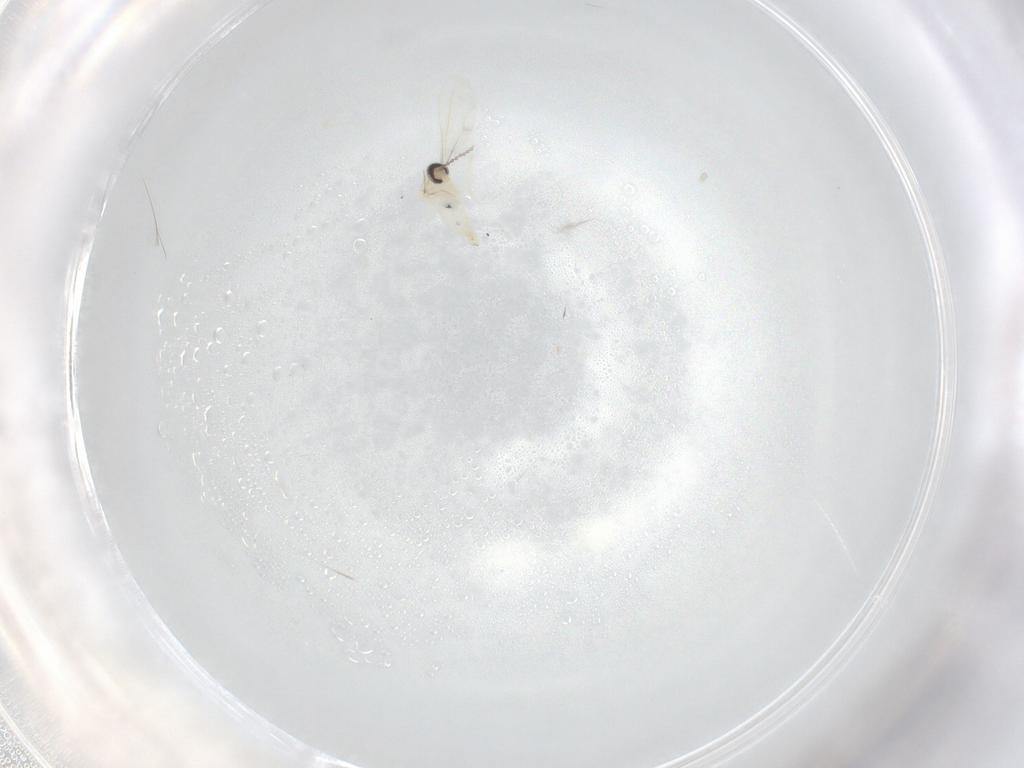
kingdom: Animalia
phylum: Arthropoda
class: Insecta
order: Diptera
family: Cecidomyiidae
